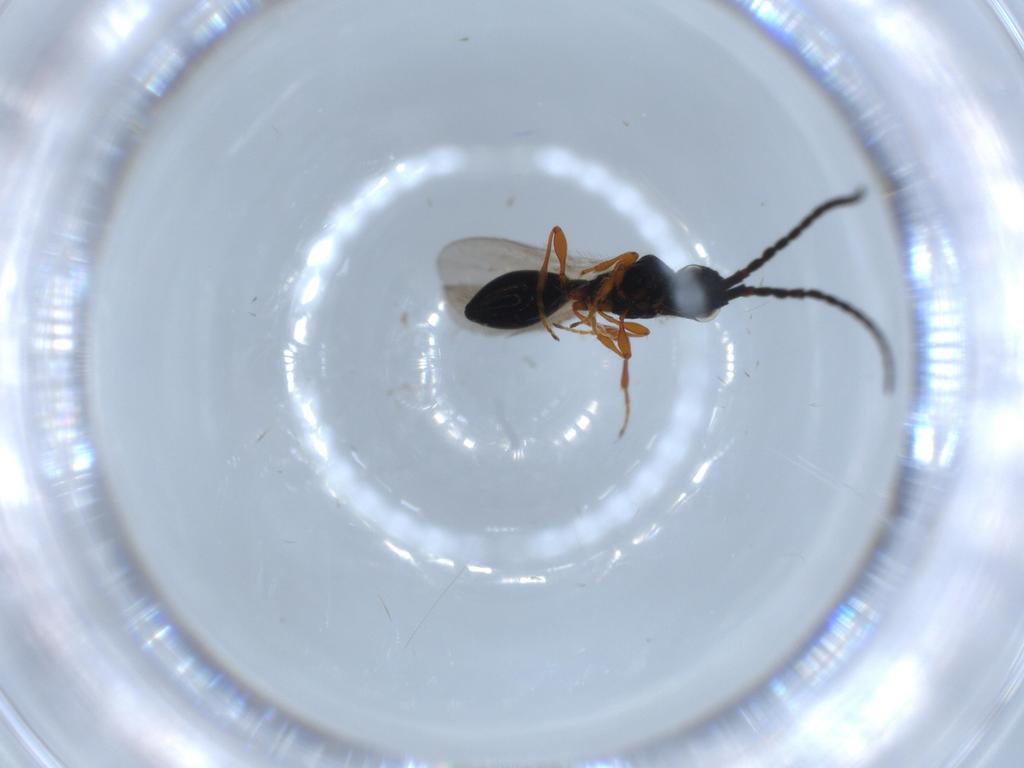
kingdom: Animalia
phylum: Arthropoda
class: Insecta
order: Hymenoptera
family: Diapriidae
